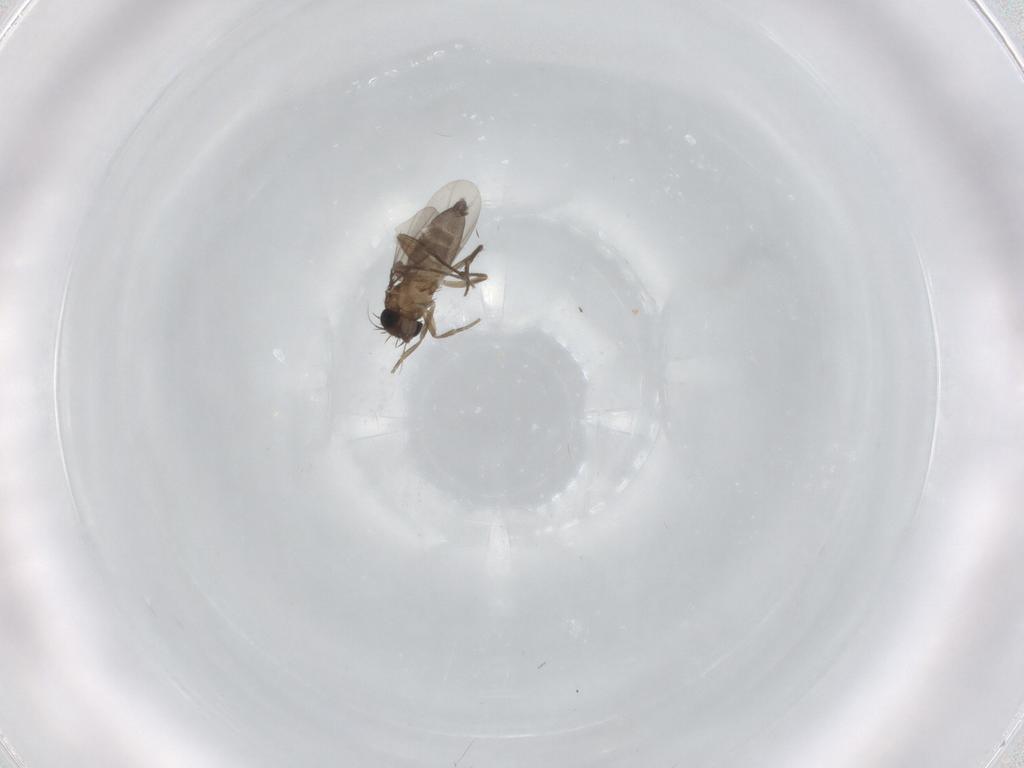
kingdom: Animalia
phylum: Arthropoda
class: Insecta
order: Diptera
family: Phoridae
